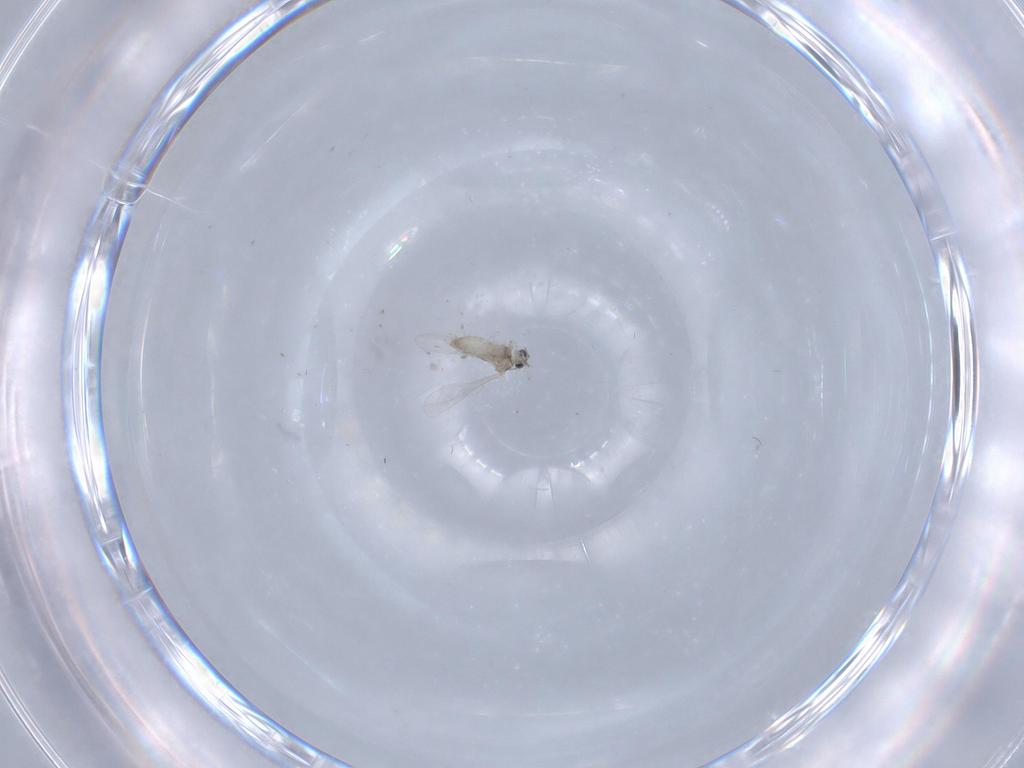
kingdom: Animalia
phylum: Arthropoda
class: Insecta
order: Diptera
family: Cecidomyiidae
